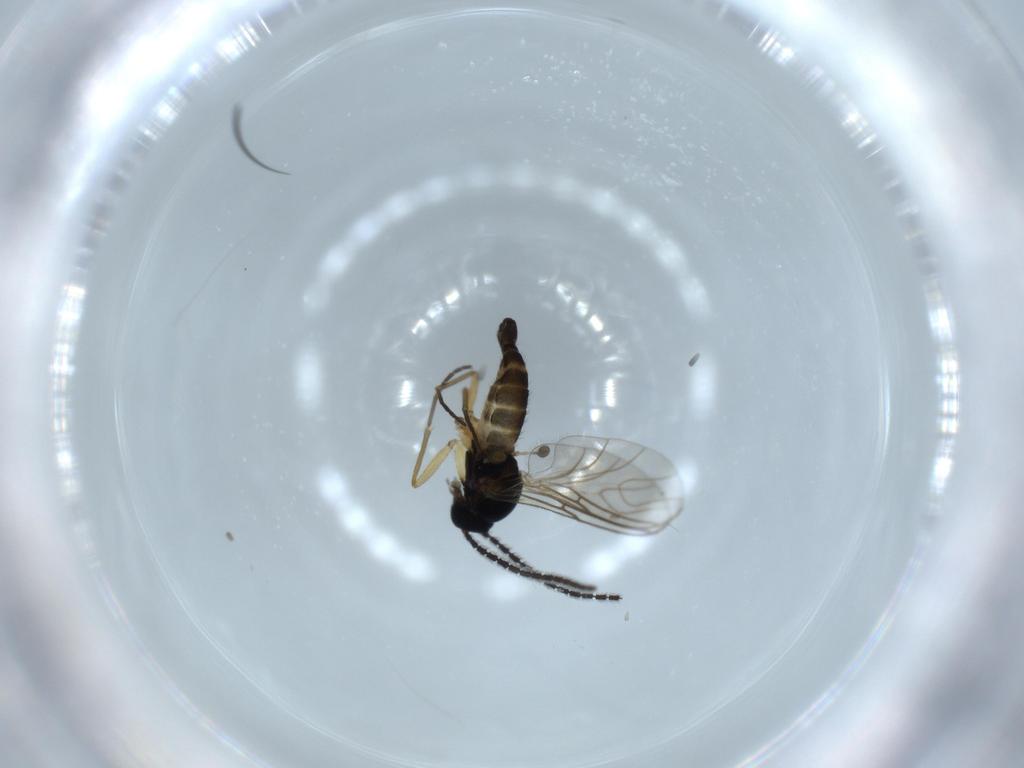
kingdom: Animalia
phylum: Arthropoda
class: Insecta
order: Diptera
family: Sciaridae
